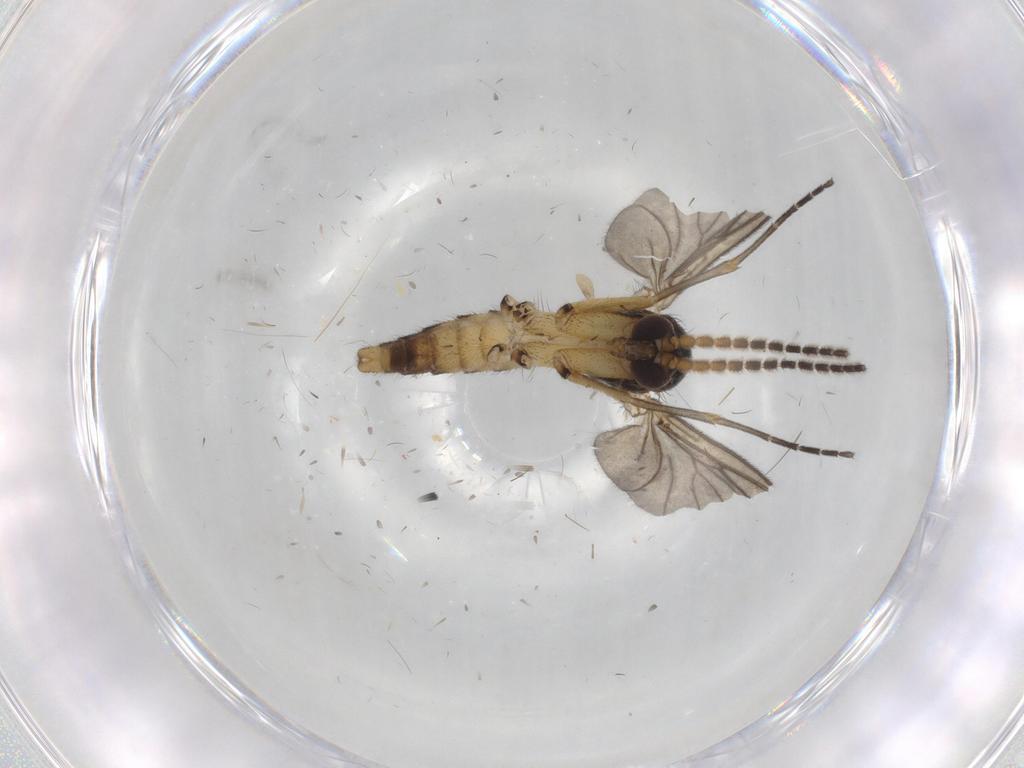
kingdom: Animalia
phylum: Arthropoda
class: Insecta
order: Diptera
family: Mycetophilidae
